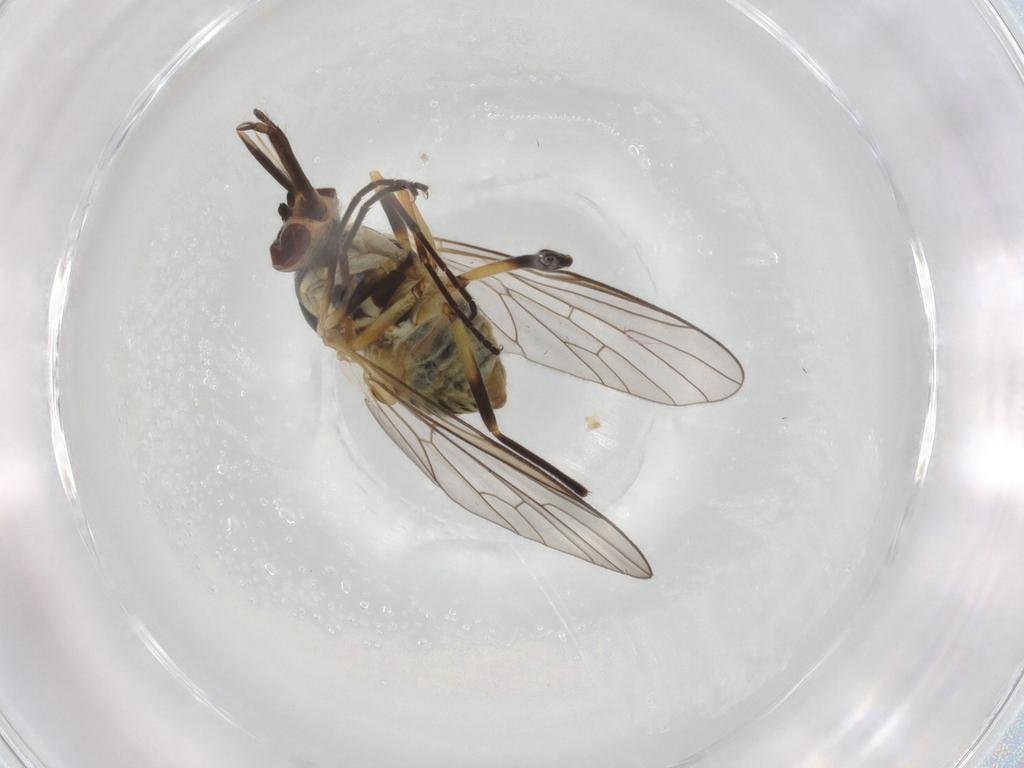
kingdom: Animalia
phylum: Arthropoda
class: Insecta
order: Diptera
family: Bombyliidae
